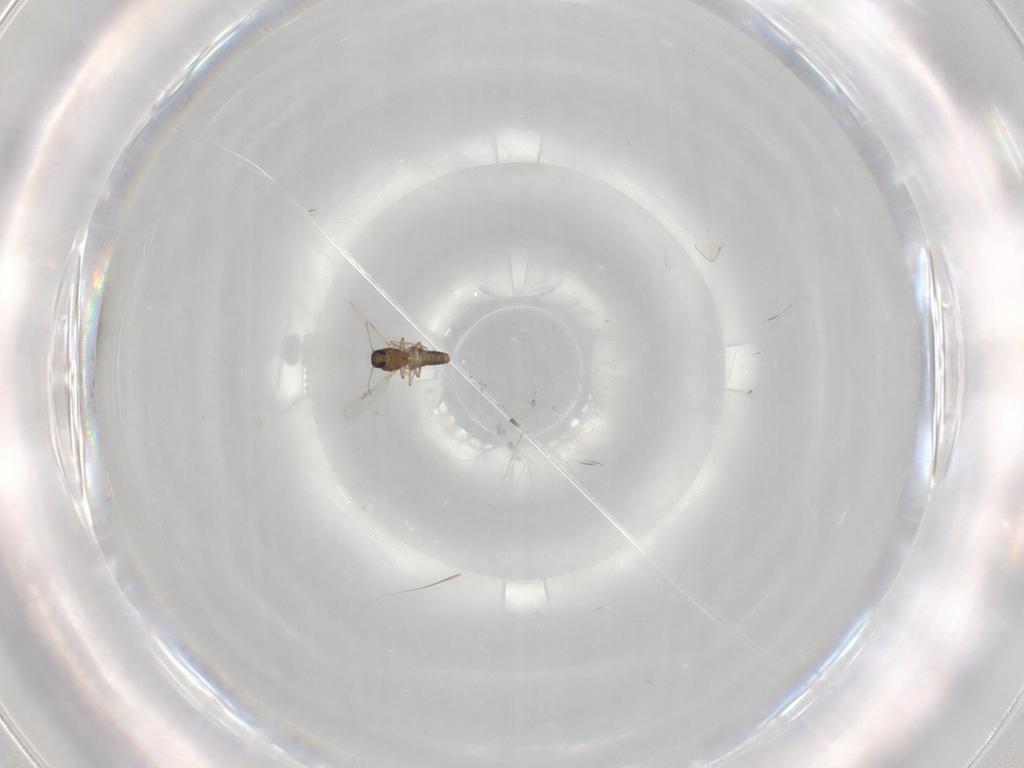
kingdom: Animalia
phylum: Arthropoda
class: Insecta
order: Diptera
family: Psychodidae
